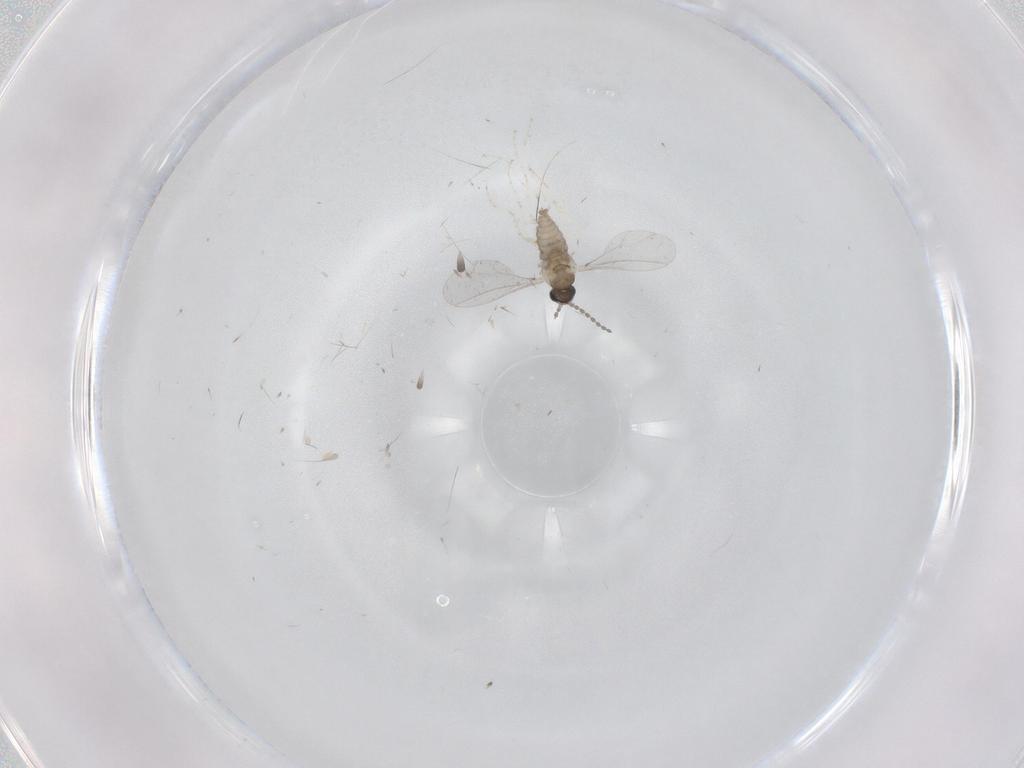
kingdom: Animalia
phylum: Arthropoda
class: Insecta
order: Diptera
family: Cecidomyiidae
